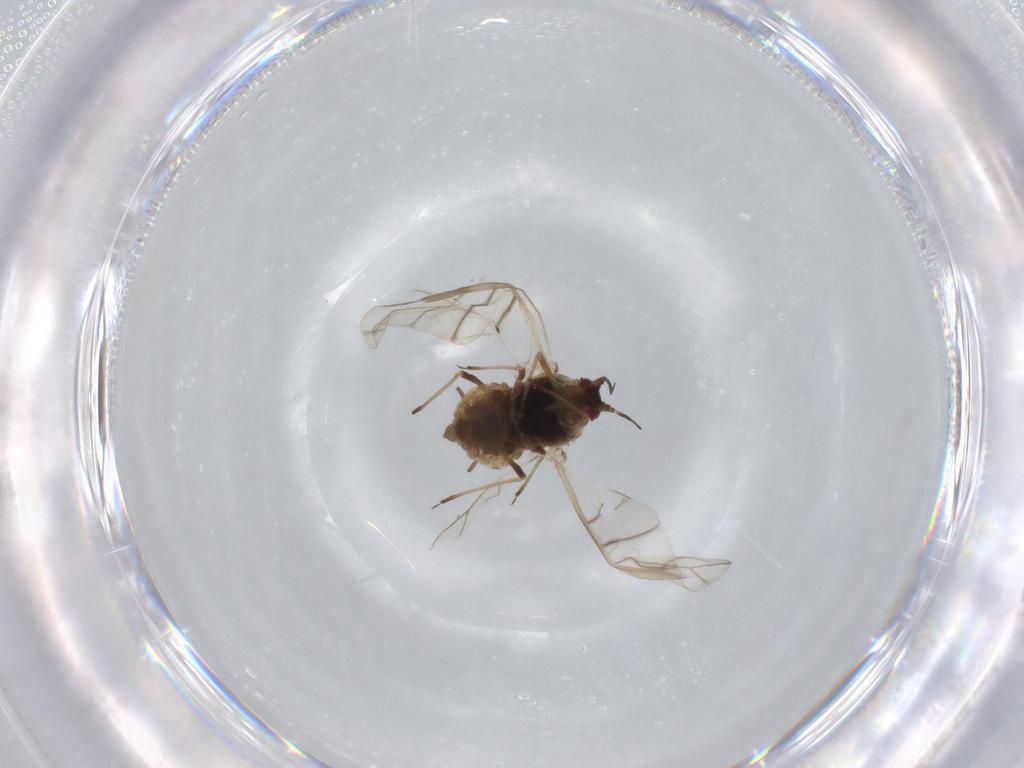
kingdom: Animalia
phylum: Arthropoda
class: Insecta
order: Hemiptera
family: Aphididae
